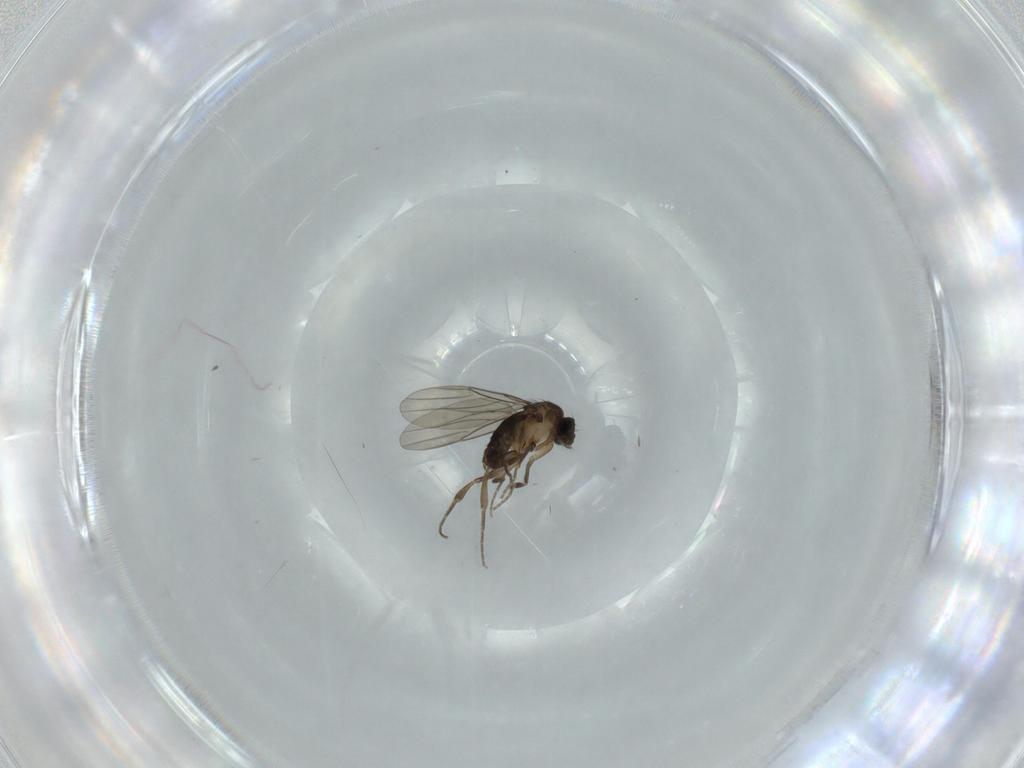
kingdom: Animalia
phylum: Arthropoda
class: Insecta
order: Diptera
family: Phoridae
